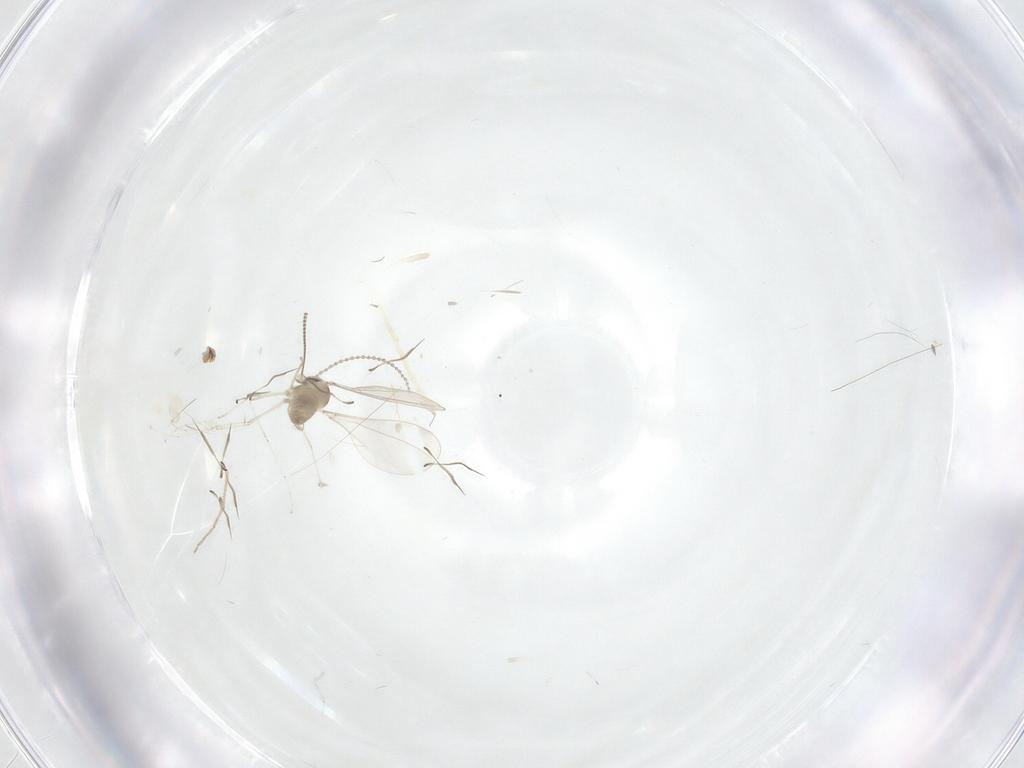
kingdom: Animalia
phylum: Arthropoda
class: Insecta
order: Diptera
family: Cecidomyiidae
